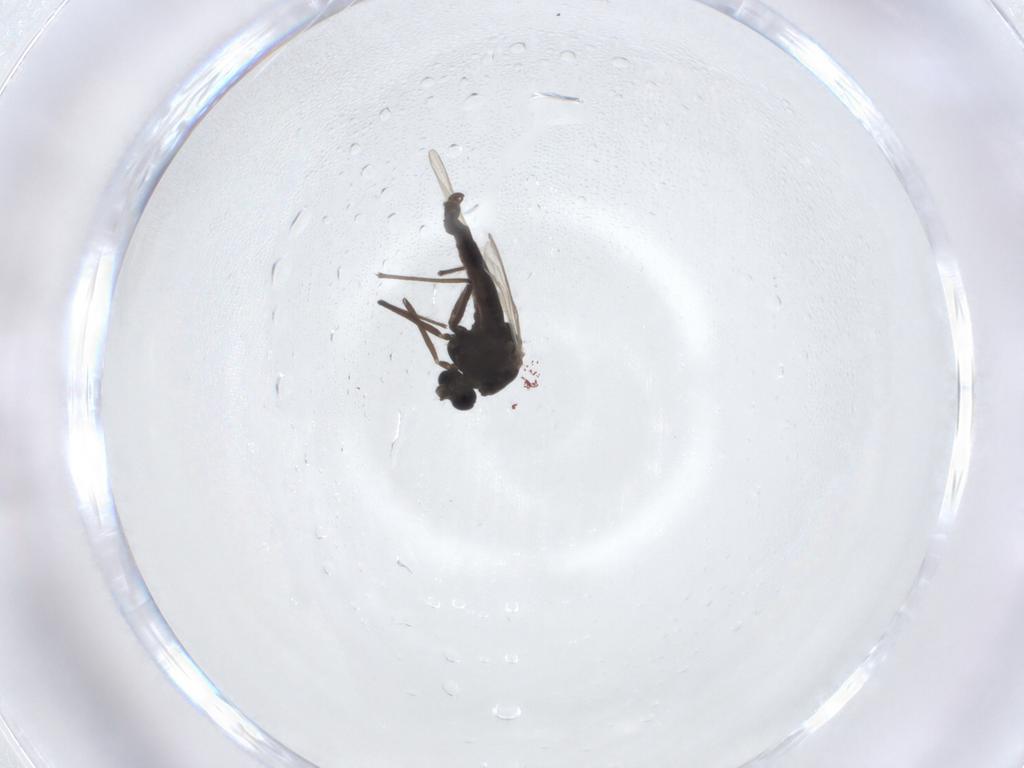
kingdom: Animalia
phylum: Arthropoda
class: Insecta
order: Diptera
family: Chironomidae
